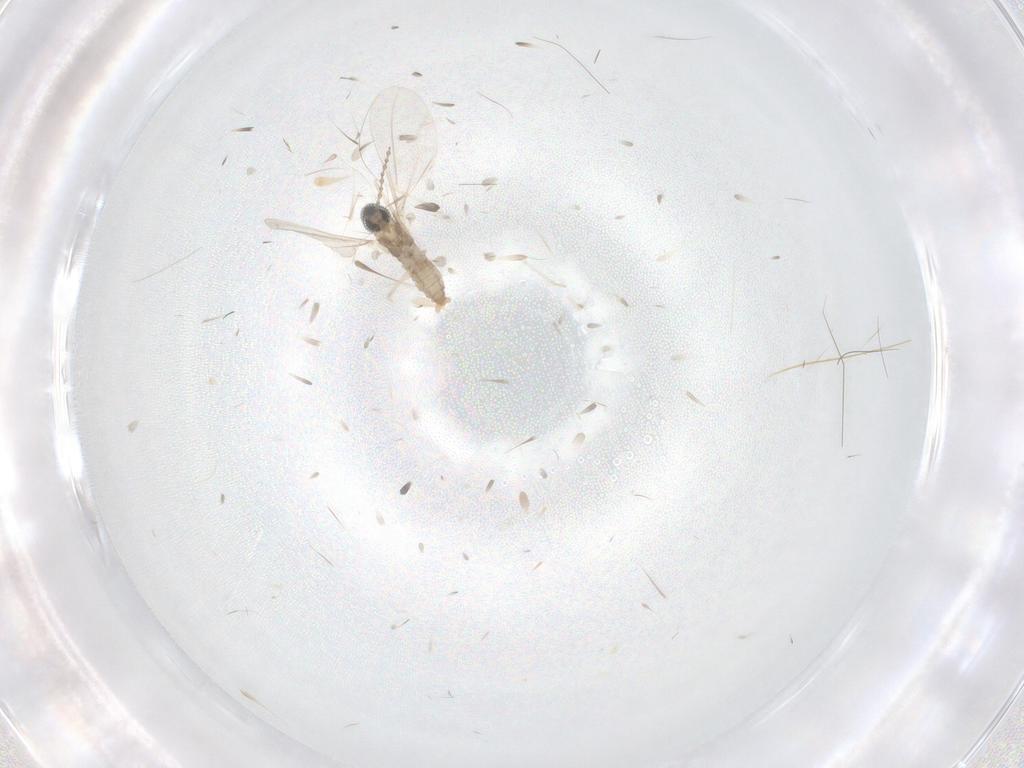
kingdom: Animalia
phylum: Arthropoda
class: Insecta
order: Diptera
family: Cecidomyiidae
